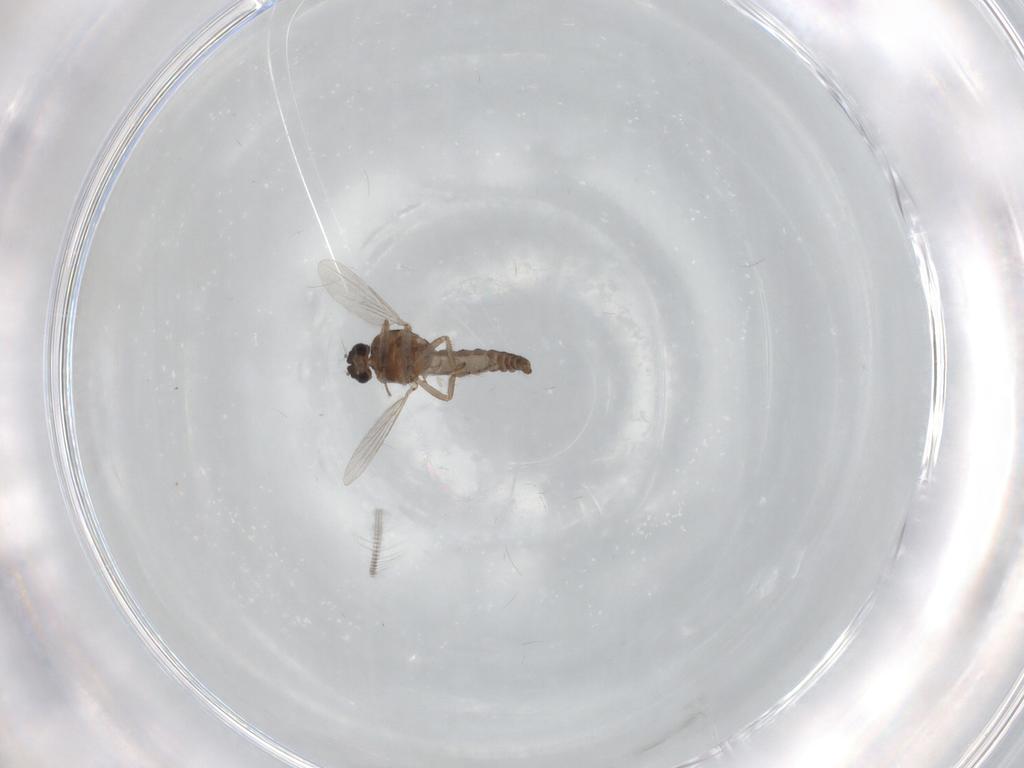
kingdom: Animalia
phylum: Arthropoda
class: Insecta
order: Diptera
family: Ceratopogonidae
